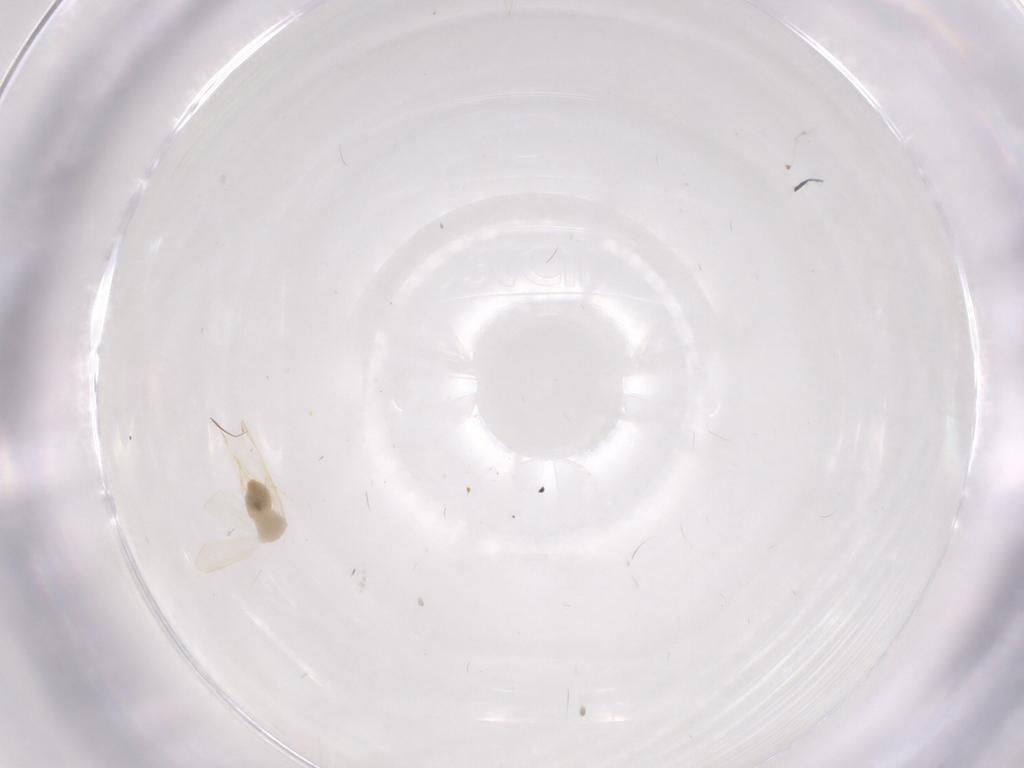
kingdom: Animalia
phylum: Arthropoda
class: Insecta
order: Hemiptera
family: Aleyrodidae
